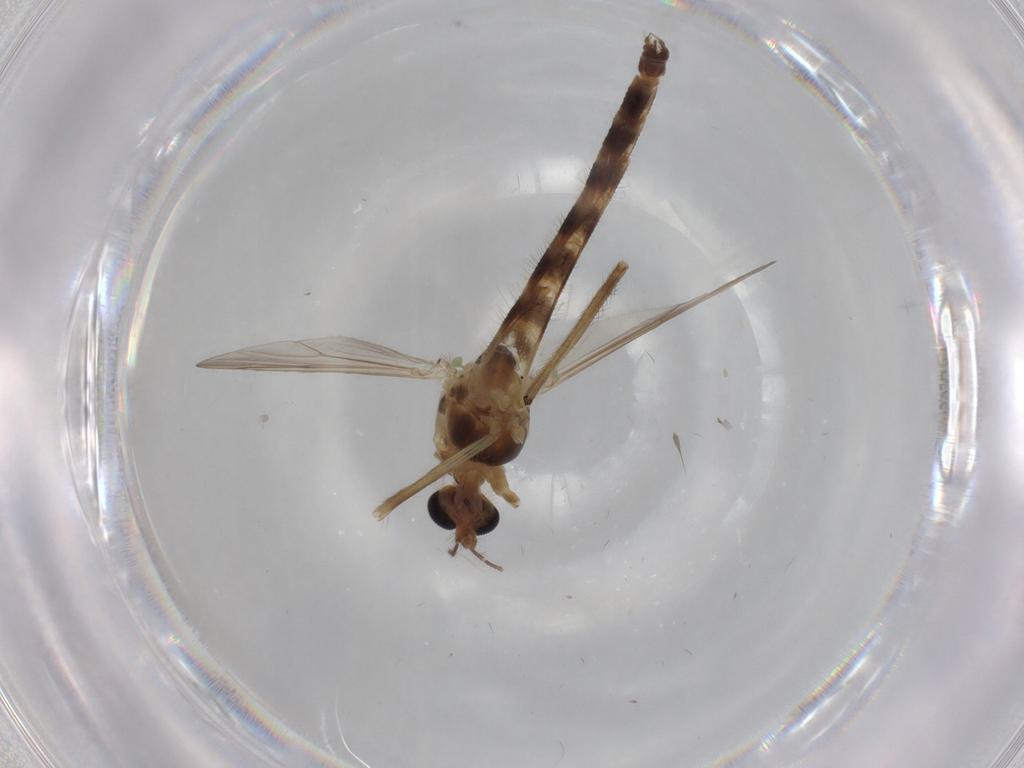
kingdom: Animalia
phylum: Arthropoda
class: Insecta
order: Diptera
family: Chironomidae
